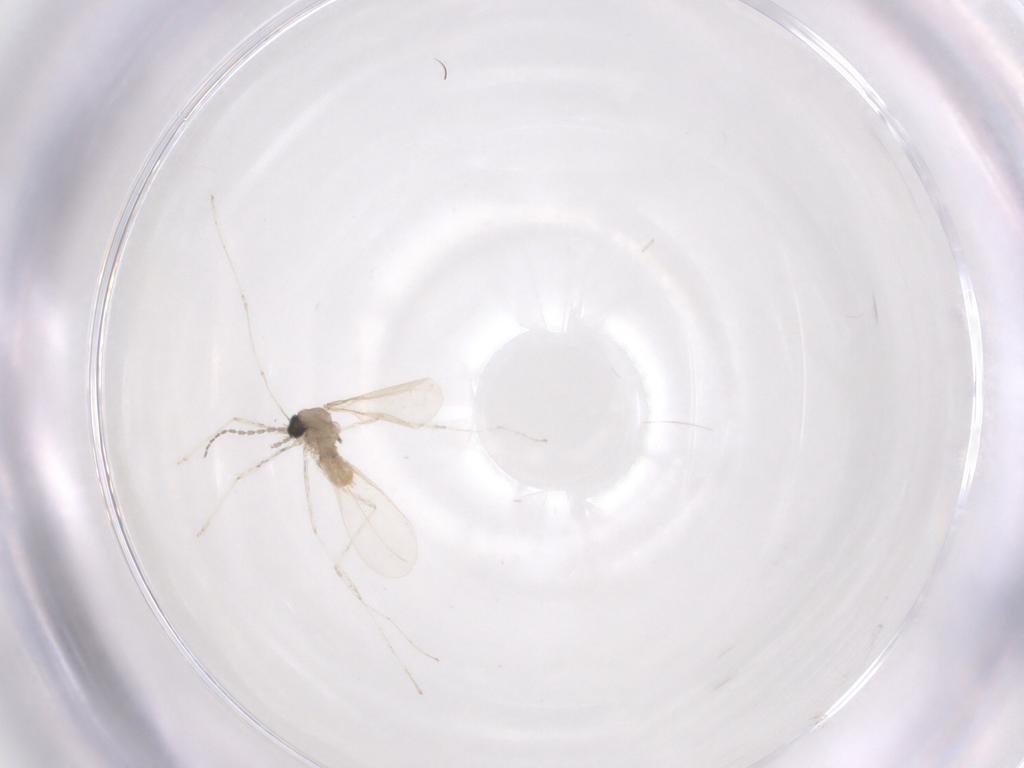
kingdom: Animalia
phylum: Arthropoda
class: Insecta
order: Diptera
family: Cecidomyiidae
